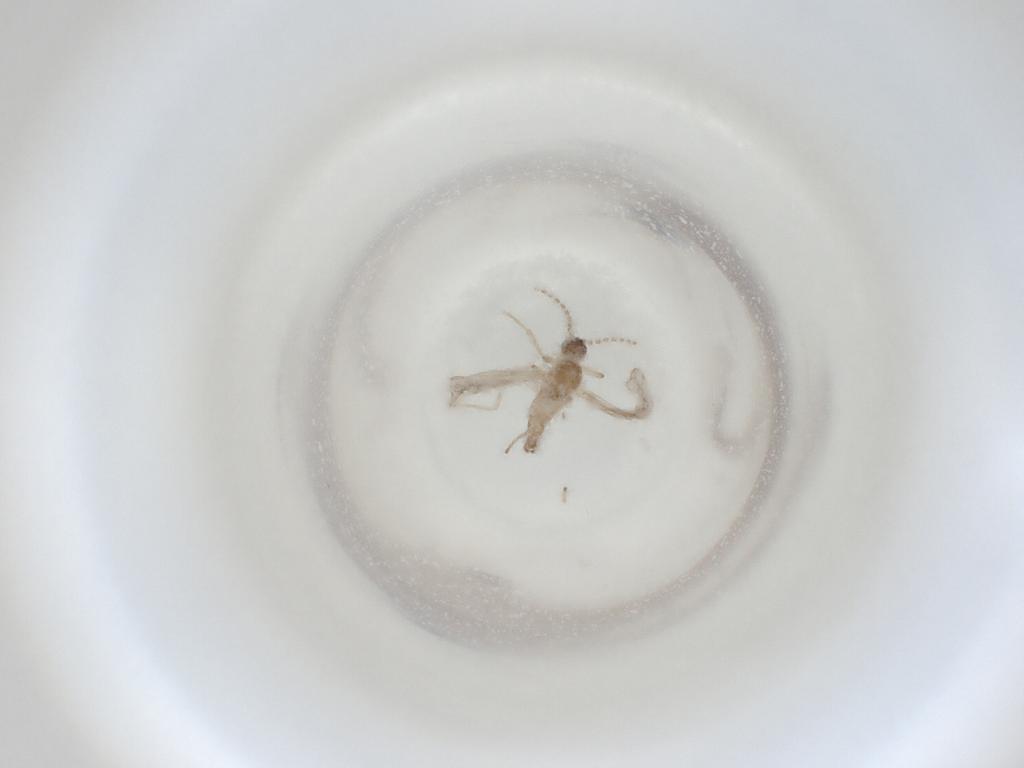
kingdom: Animalia
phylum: Arthropoda
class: Insecta
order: Diptera
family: Cecidomyiidae
